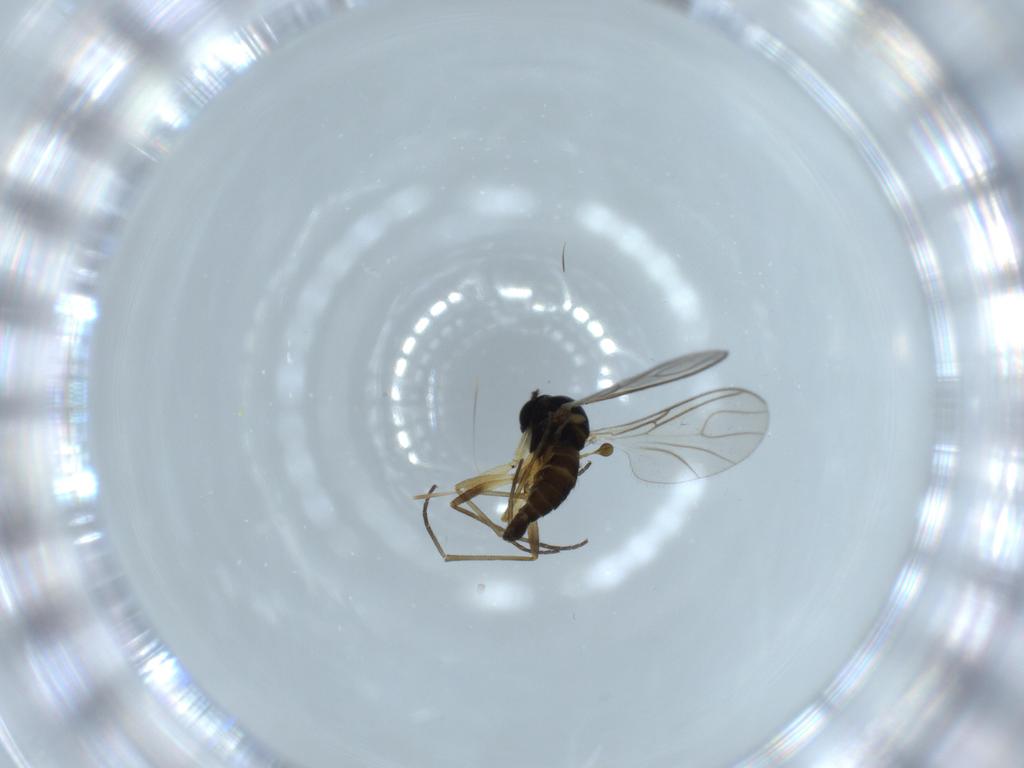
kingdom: Animalia
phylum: Arthropoda
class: Insecta
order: Diptera
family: Sciaridae
